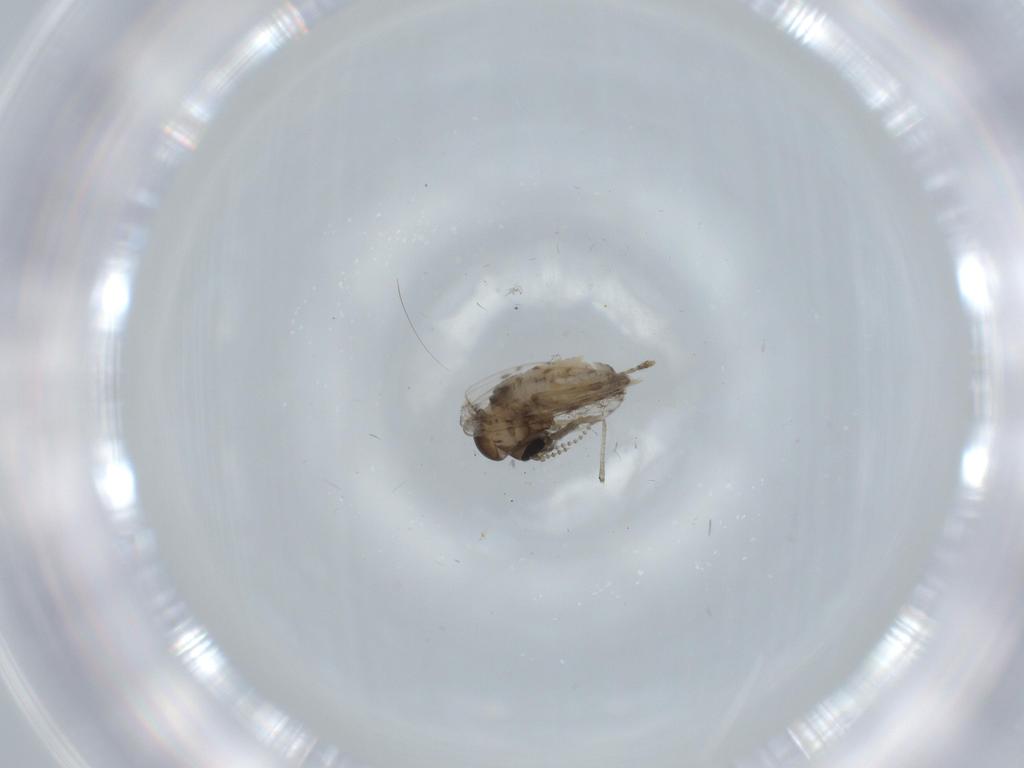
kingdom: Animalia
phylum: Arthropoda
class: Insecta
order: Diptera
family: Psychodidae
